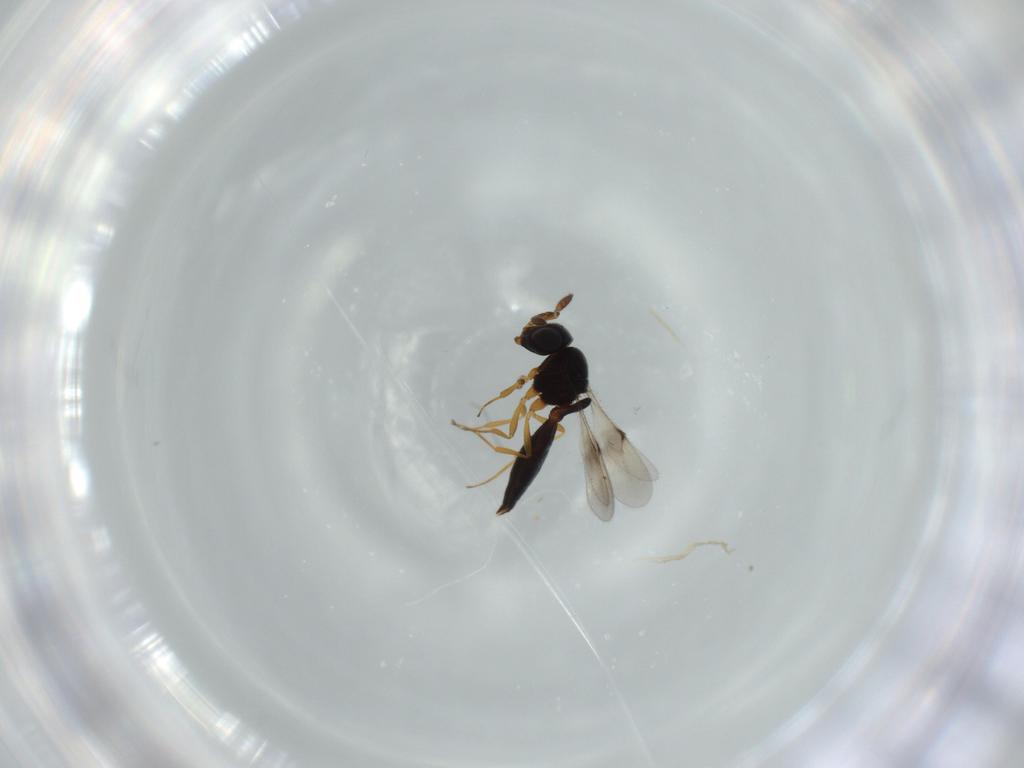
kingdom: Animalia
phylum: Arthropoda
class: Insecta
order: Hymenoptera
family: Scelionidae
